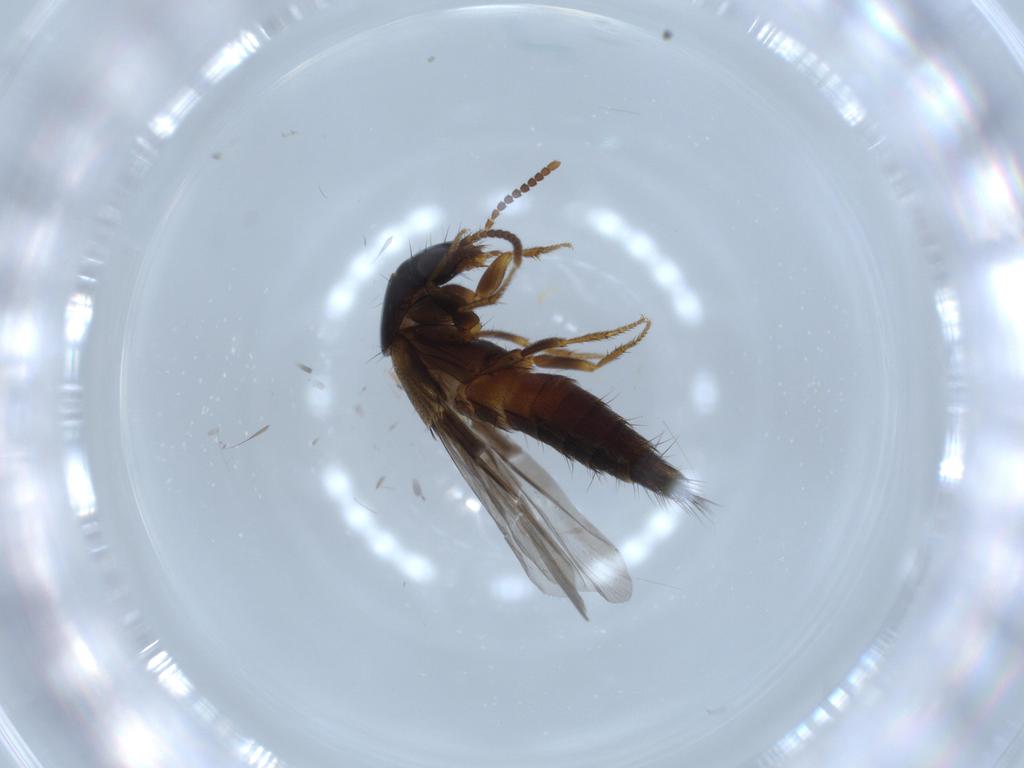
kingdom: Animalia
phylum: Arthropoda
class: Insecta
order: Coleoptera
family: Staphylinidae
